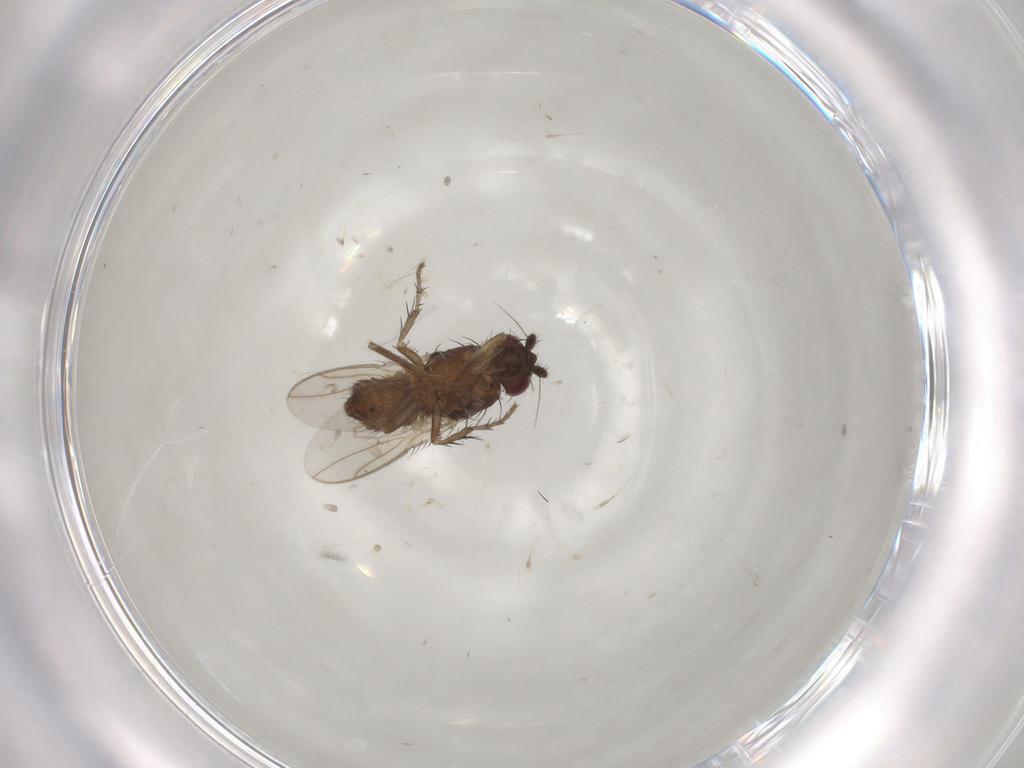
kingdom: Animalia
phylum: Arthropoda
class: Insecta
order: Diptera
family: Sphaeroceridae
